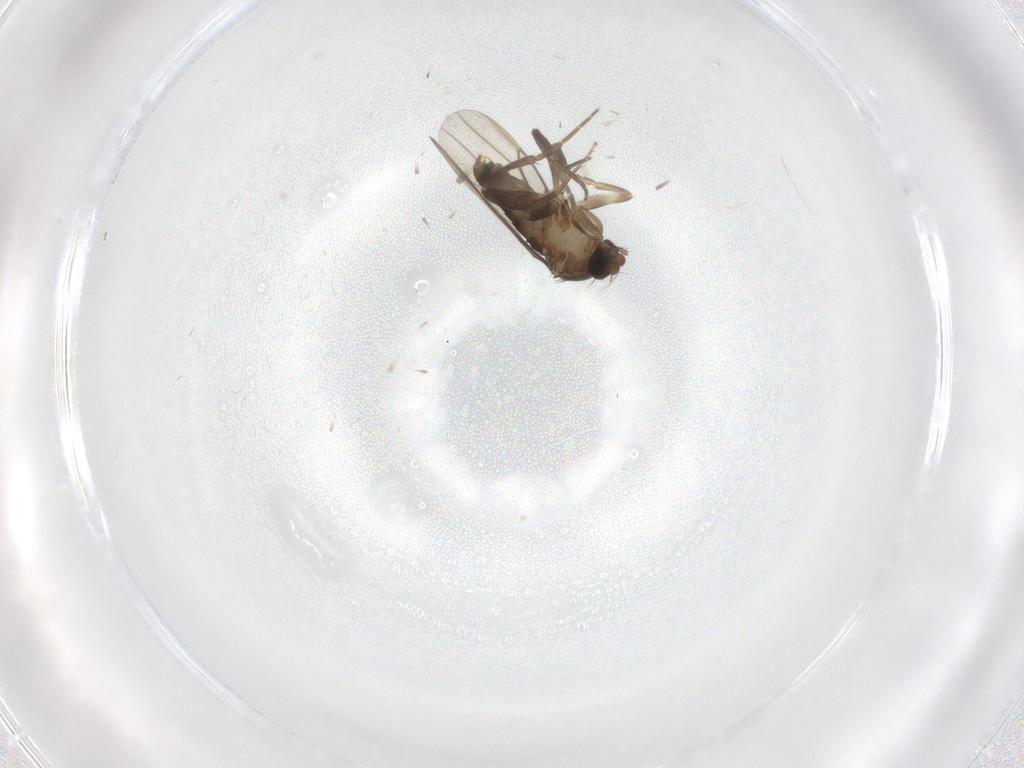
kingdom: Animalia
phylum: Arthropoda
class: Insecta
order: Diptera
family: Phoridae
